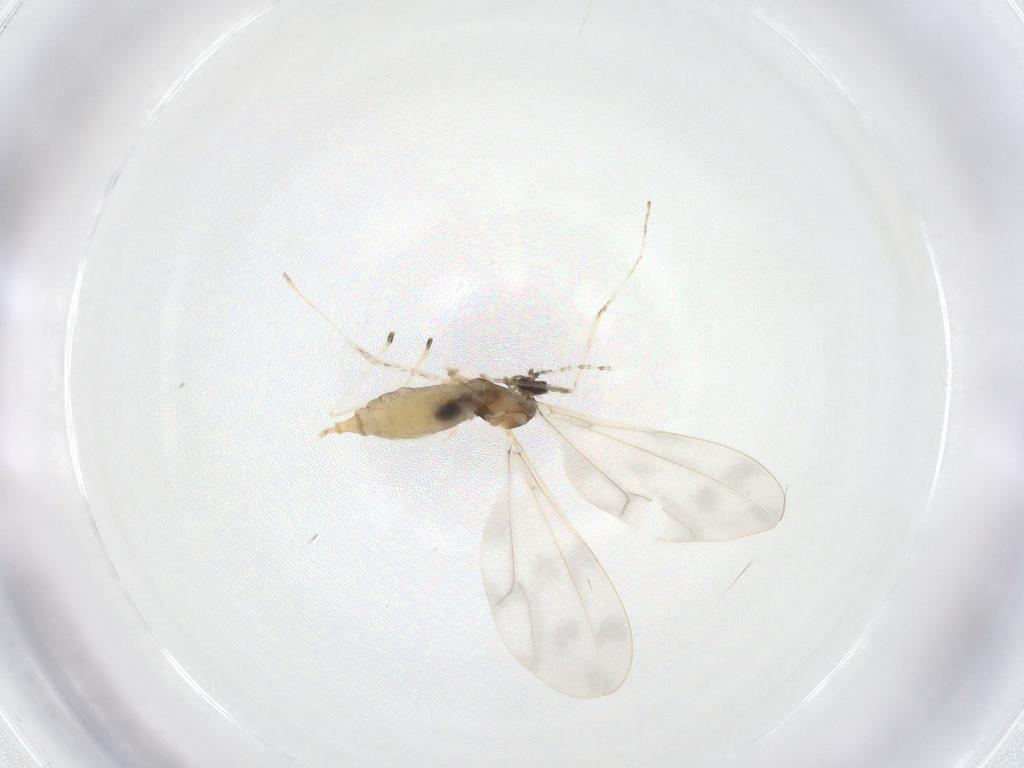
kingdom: Animalia
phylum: Arthropoda
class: Insecta
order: Diptera
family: Cecidomyiidae
